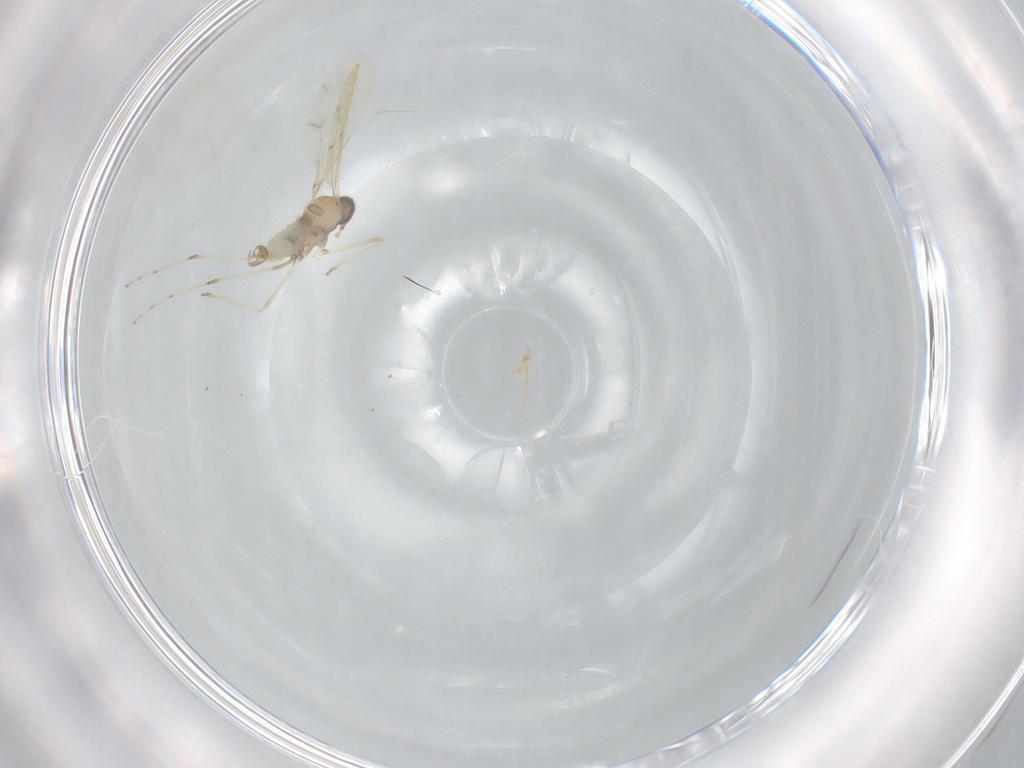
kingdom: Animalia
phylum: Arthropoda
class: Insecta
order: Diptera
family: Cecidomyiidae
